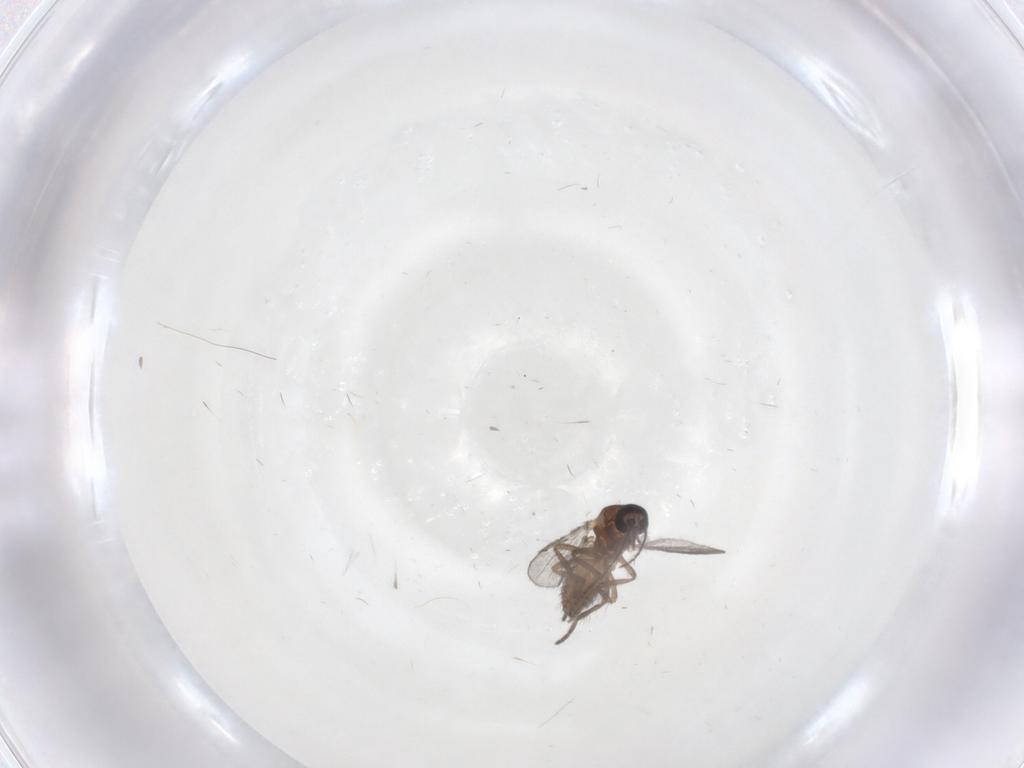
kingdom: Animalia
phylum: Arthropoda
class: Insecta
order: Diptera
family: Cecidomyiidae
